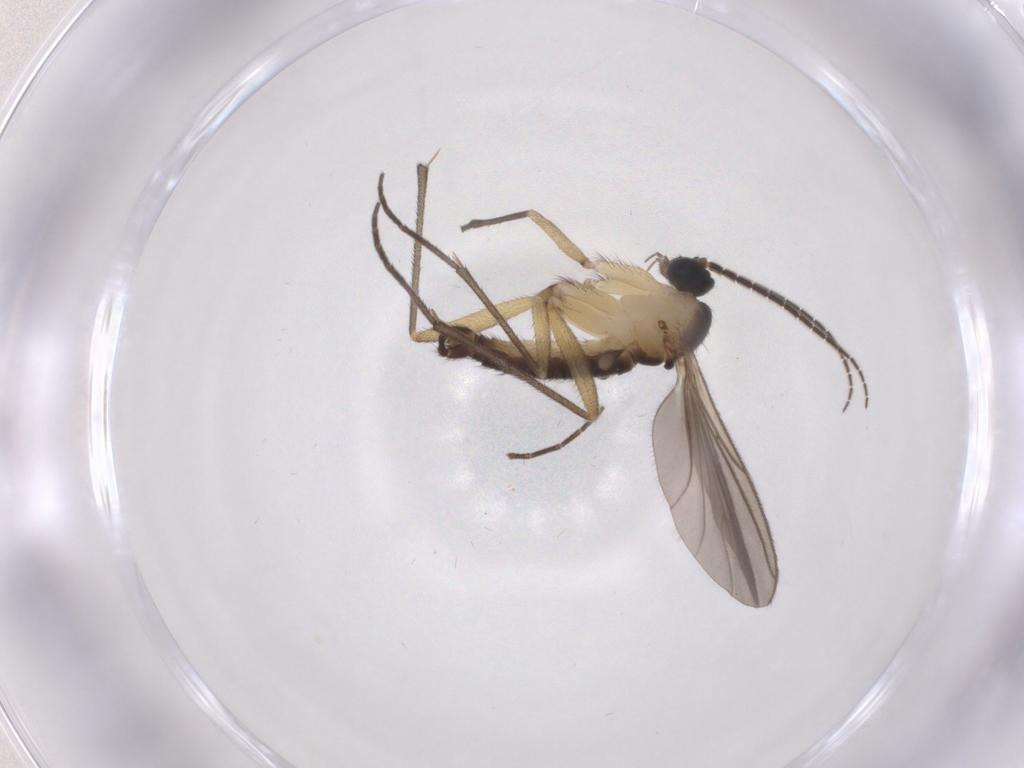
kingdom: Animalia
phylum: Arthropoda
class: Insecta
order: Diptera
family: Sciaridae
